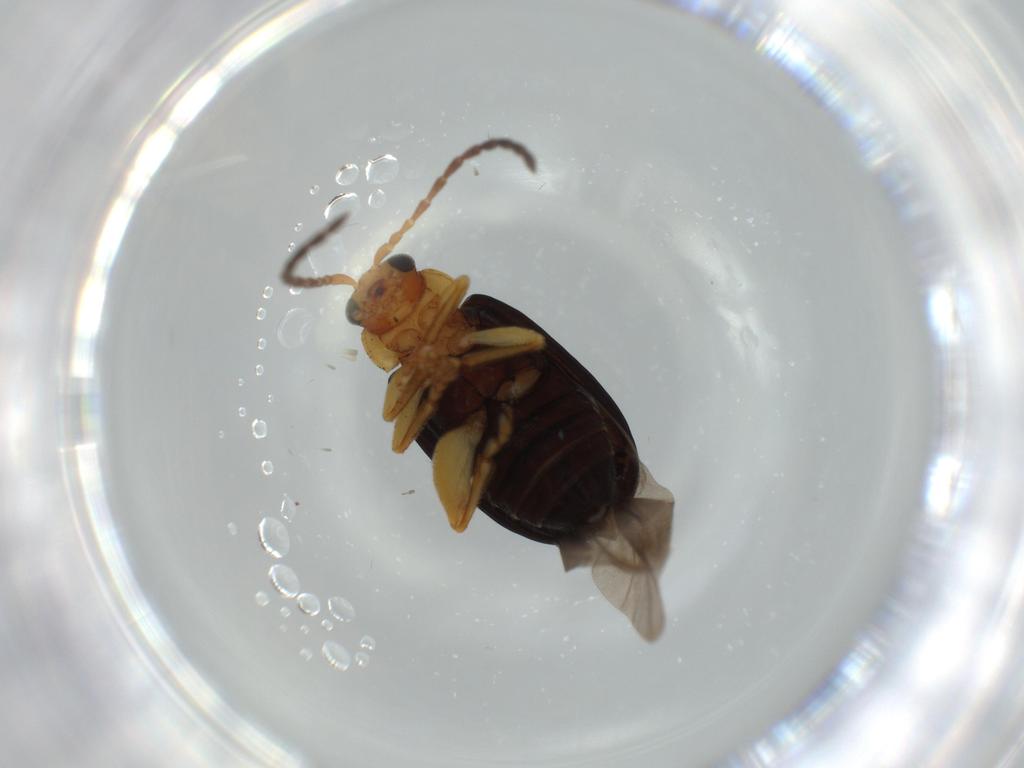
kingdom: Animalia
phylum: Arthropoda
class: Insecta
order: Coleoptera
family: Chrysomelidae
